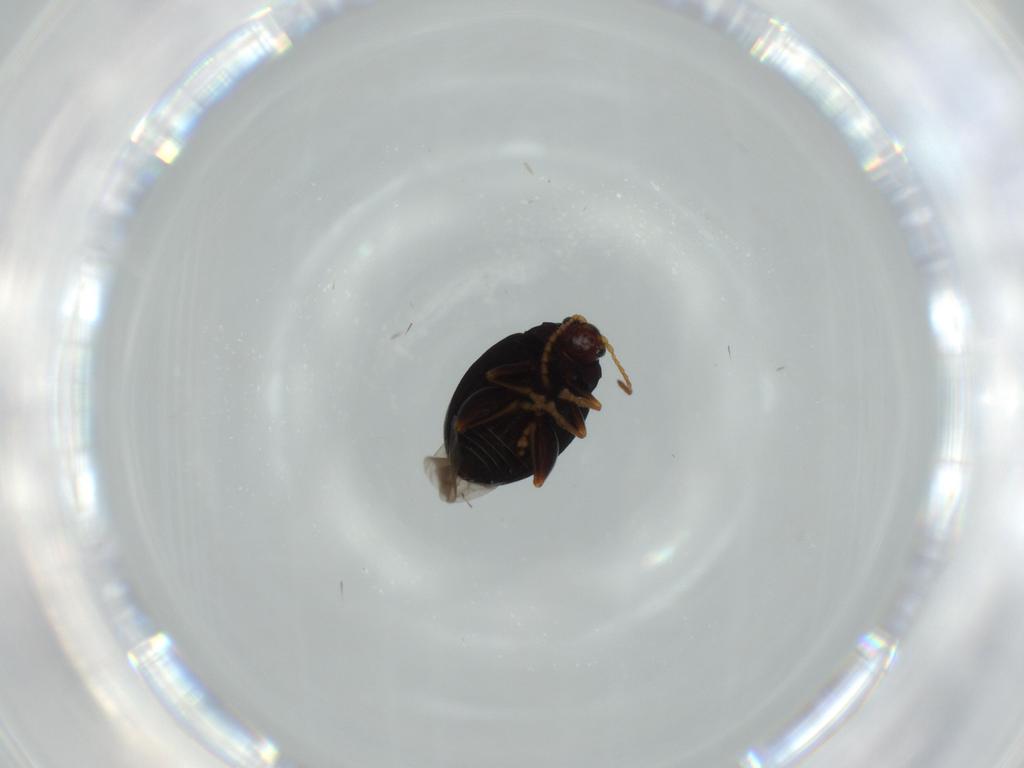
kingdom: Animalia
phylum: Arthropoda
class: Insecta
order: Coleoptera
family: Chrysomelidae
